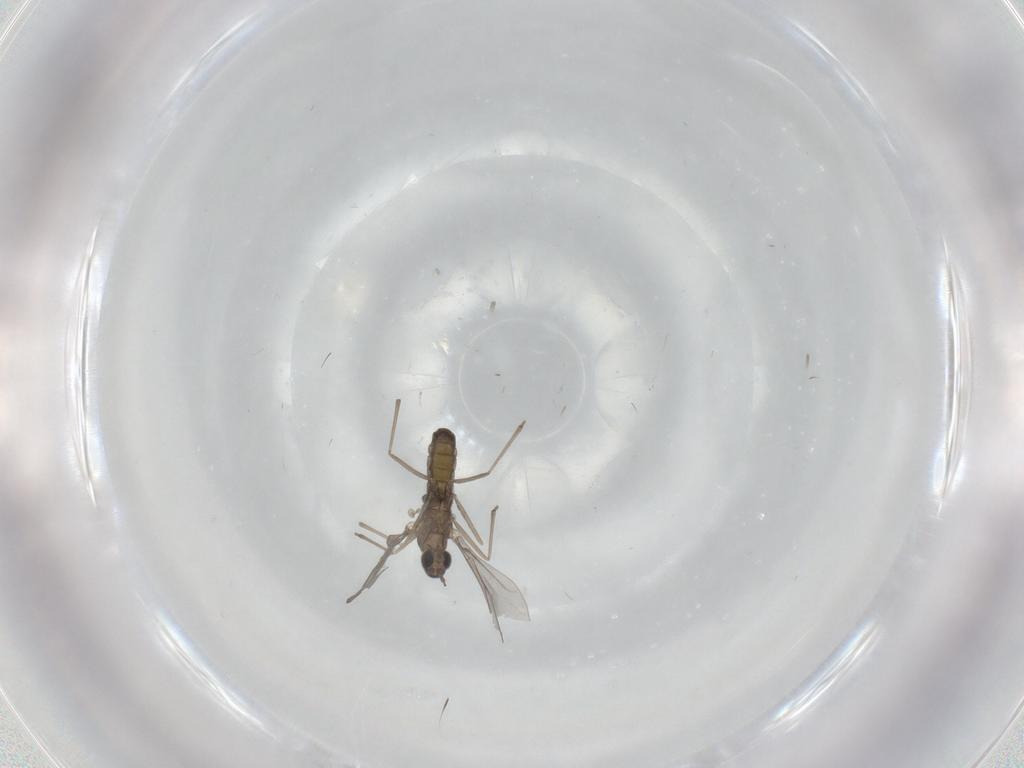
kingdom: Animalia
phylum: Arthropoda
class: Insecta
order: Diptera
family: Cecidomyiidae
